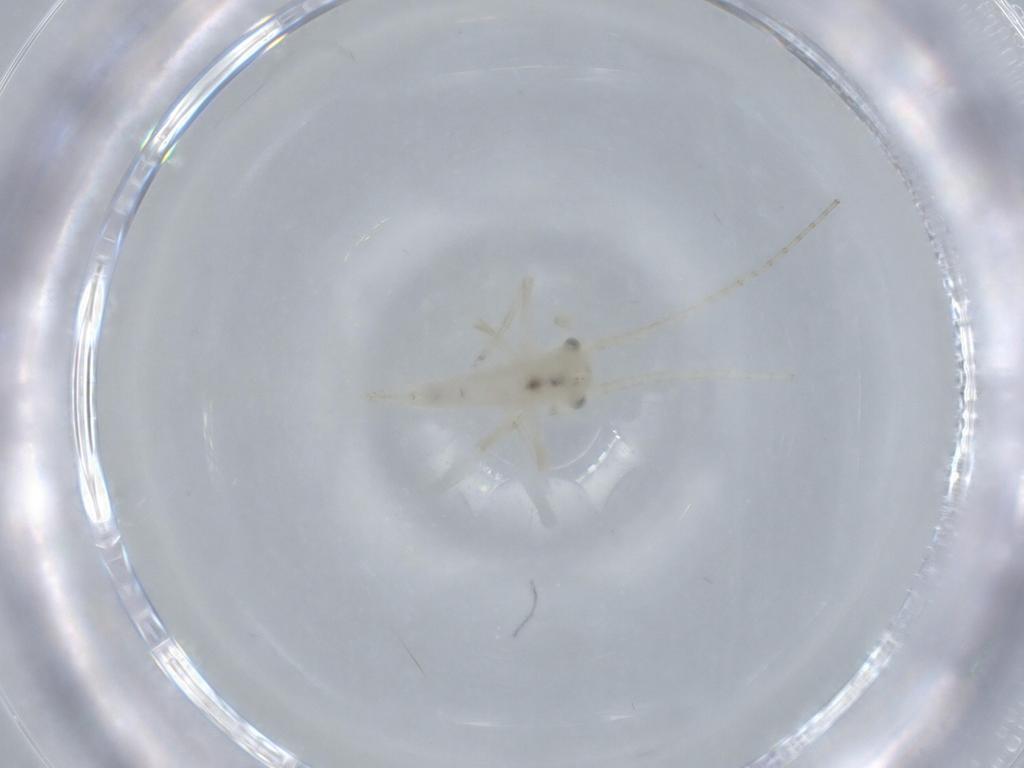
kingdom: Animalia
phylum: Arthropoda
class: Insecta
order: Orthoptera
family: Trigonidiidae
